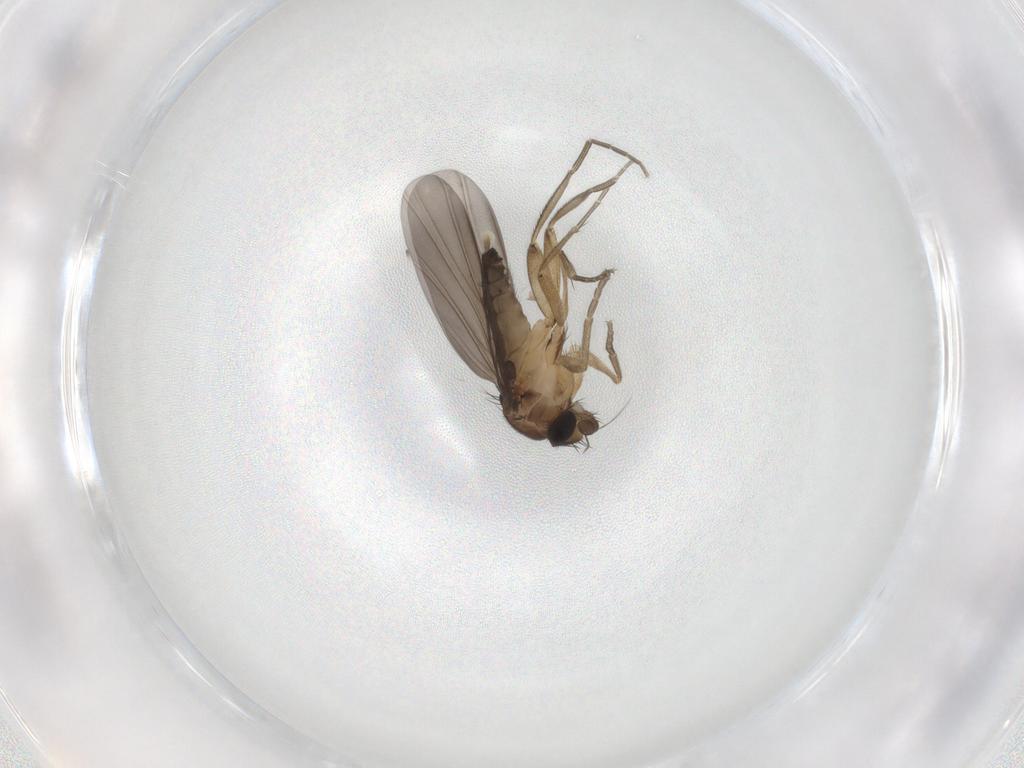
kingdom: Animalia
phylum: Arthropoda
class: Insecta
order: Diptera
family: Phoridae
